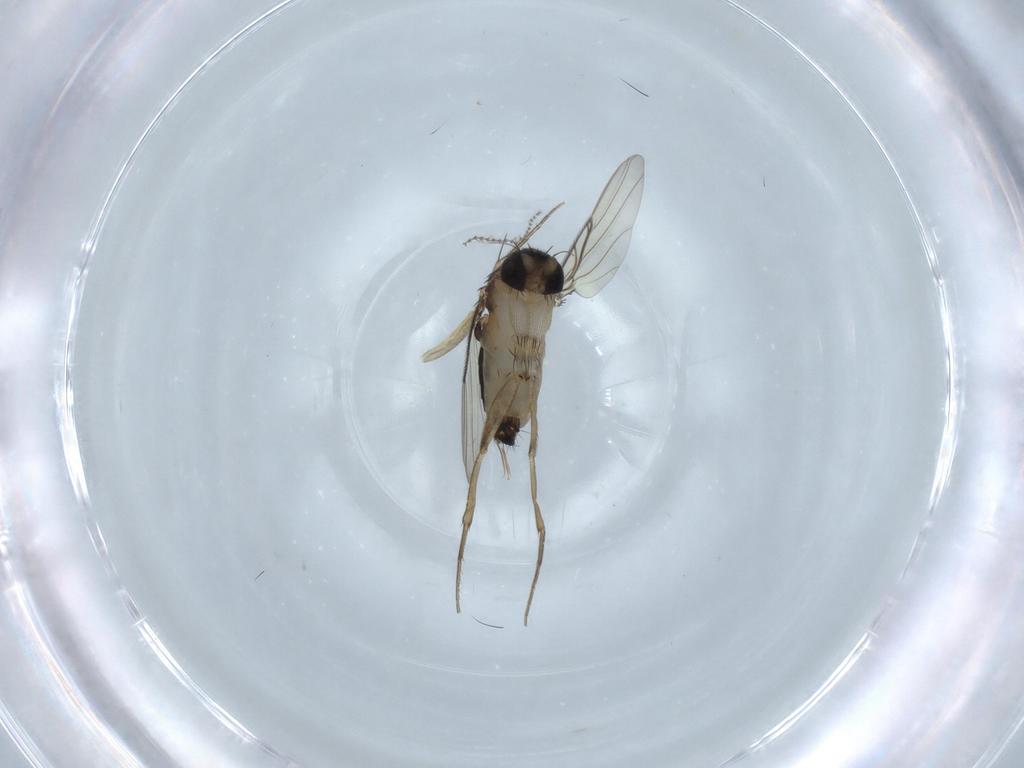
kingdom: Animalia
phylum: Arthropoda
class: Insecta
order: Diptera
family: Phoridae
